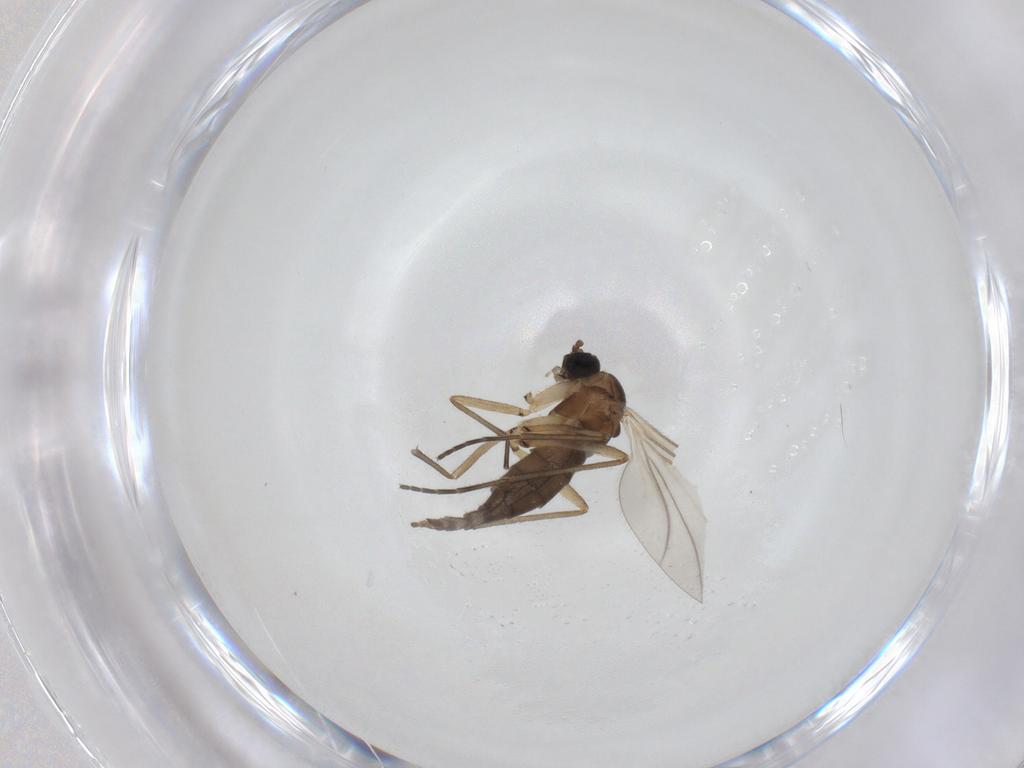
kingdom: Animalia
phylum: Arthropoda
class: Insecta
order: Diptera
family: Sciaridae
